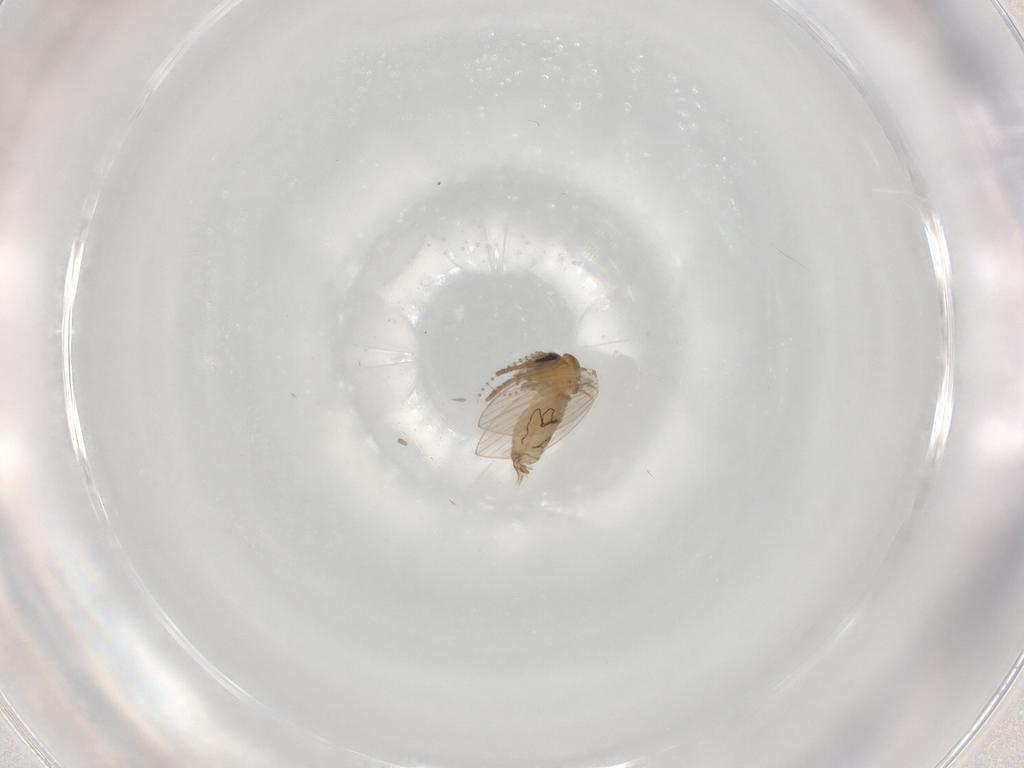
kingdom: Animalia
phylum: Arthropoda
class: Insecta
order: Diptera
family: Psychodidae
